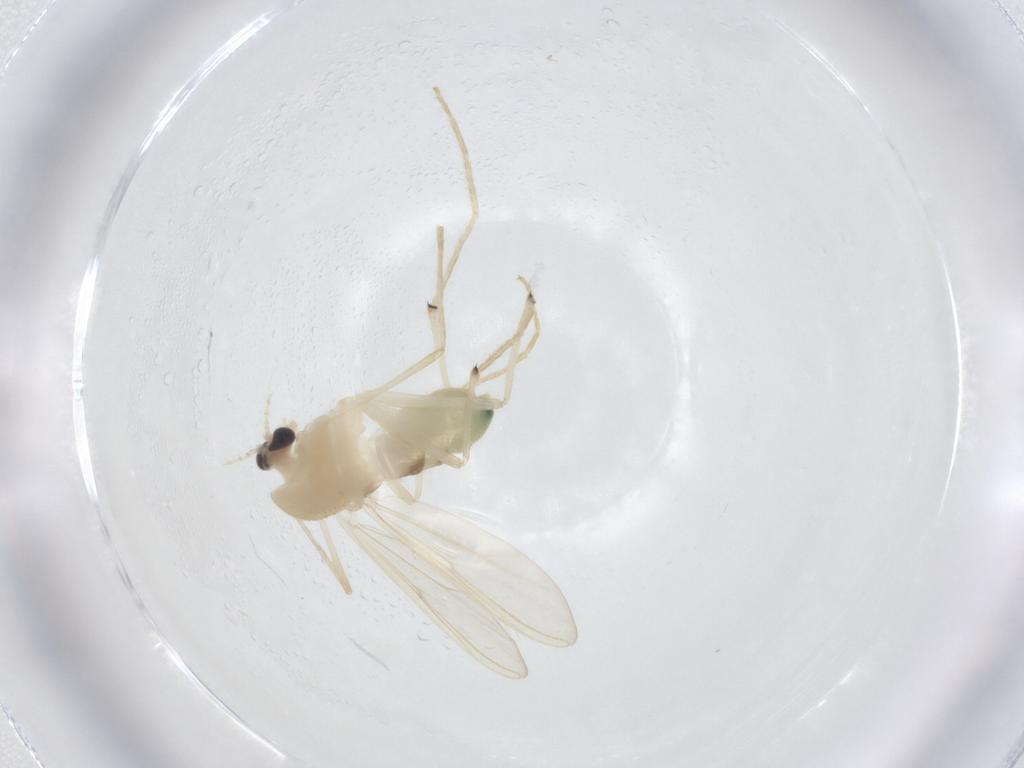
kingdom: Animalia
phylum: Arthropoda
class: Insecta
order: Diptera
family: Chironomidae
